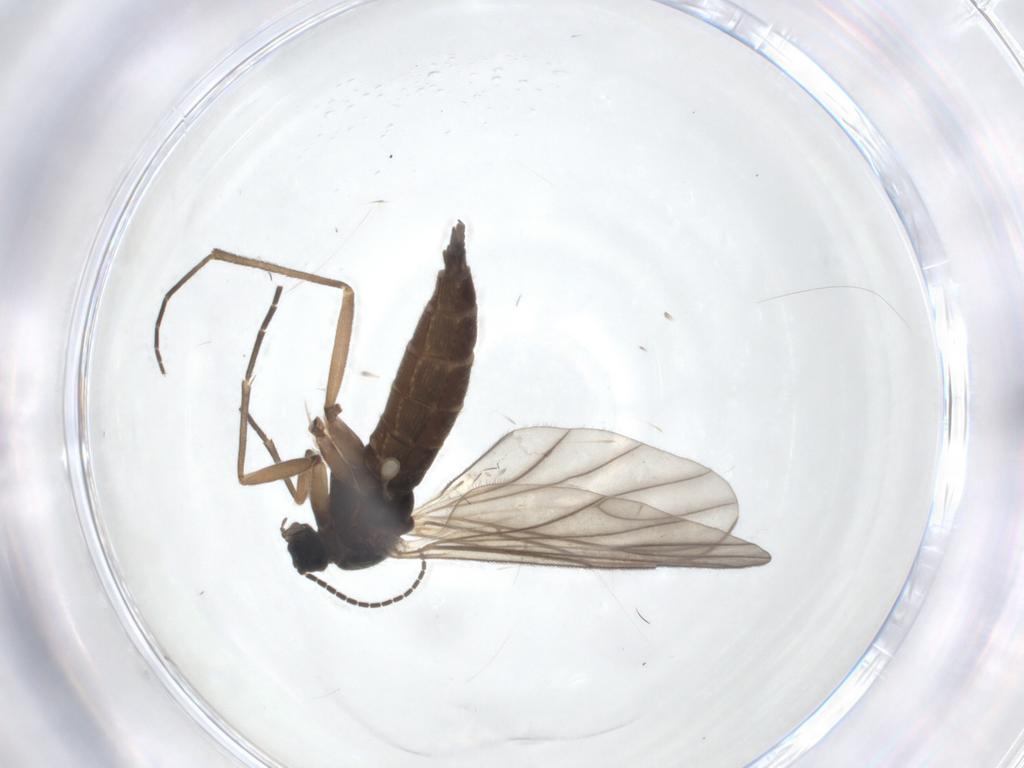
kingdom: Animalia
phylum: Arthropoda
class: Insecta
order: Diptera
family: Sciaridae
